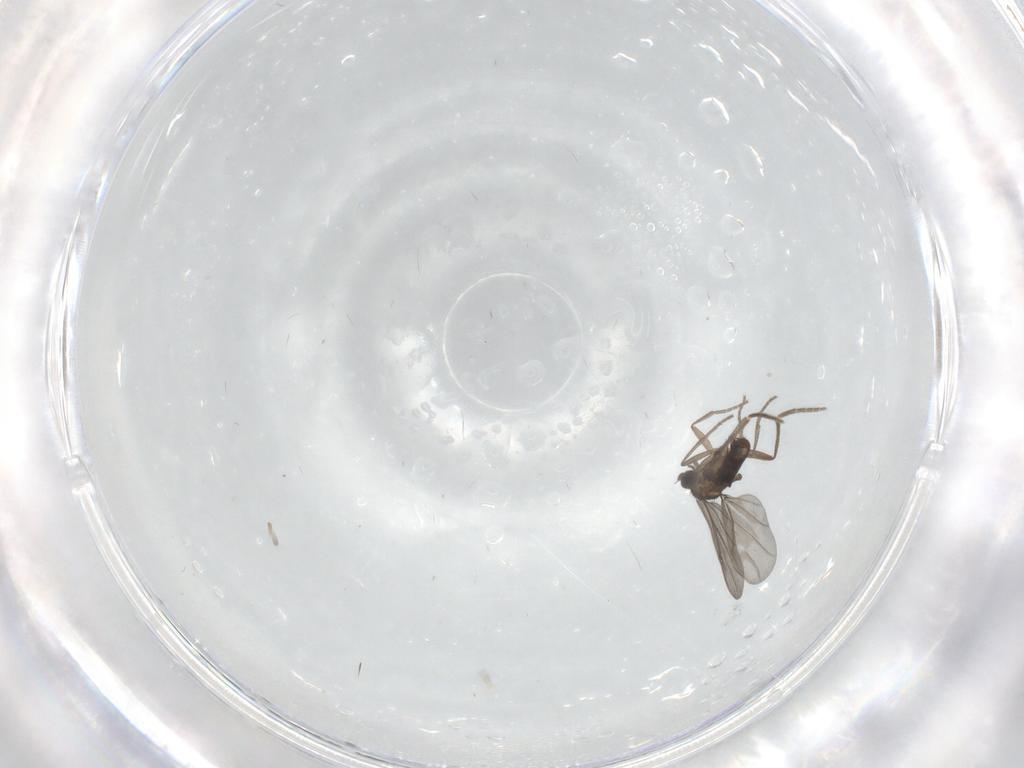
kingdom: Animalia
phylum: Arthropoda
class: Insecta
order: Diptera
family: Phoridae
